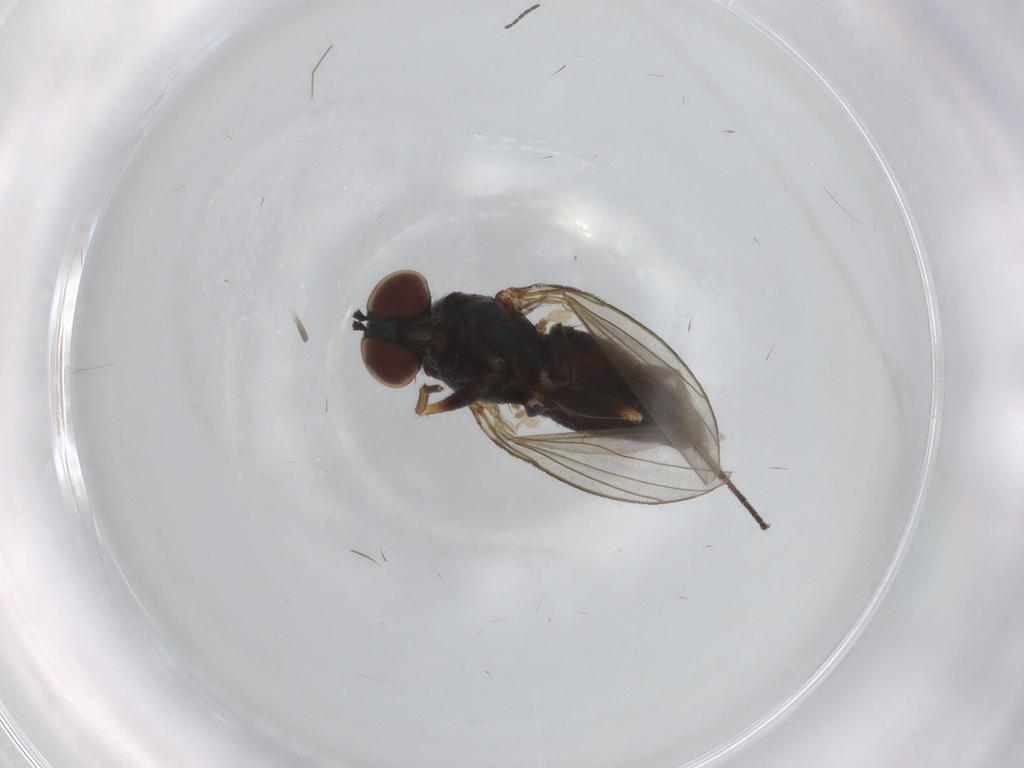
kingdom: Animalia
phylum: Arthropoda
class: Insecta
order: Diptera
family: Dolichopodidae
